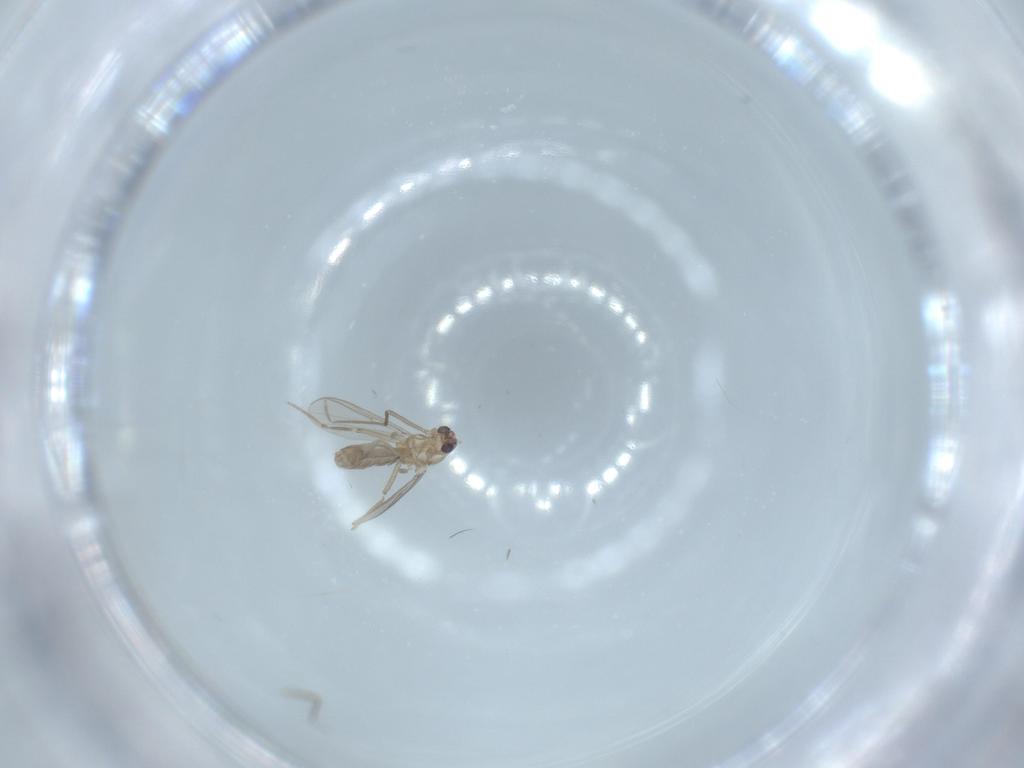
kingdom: Animalia
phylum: Arthropoda
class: Insecta
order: Diptera
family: Chironomidae
